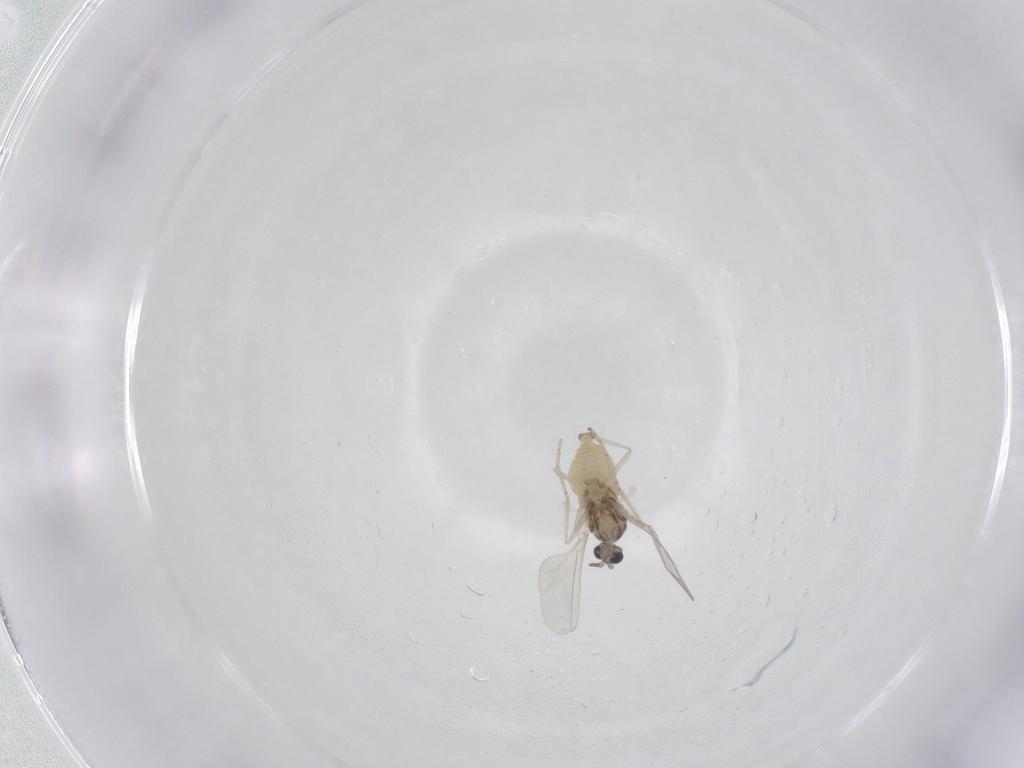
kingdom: Animalia
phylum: Arthropoda
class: Insecta
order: Diptera
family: Cecidomyiidae
